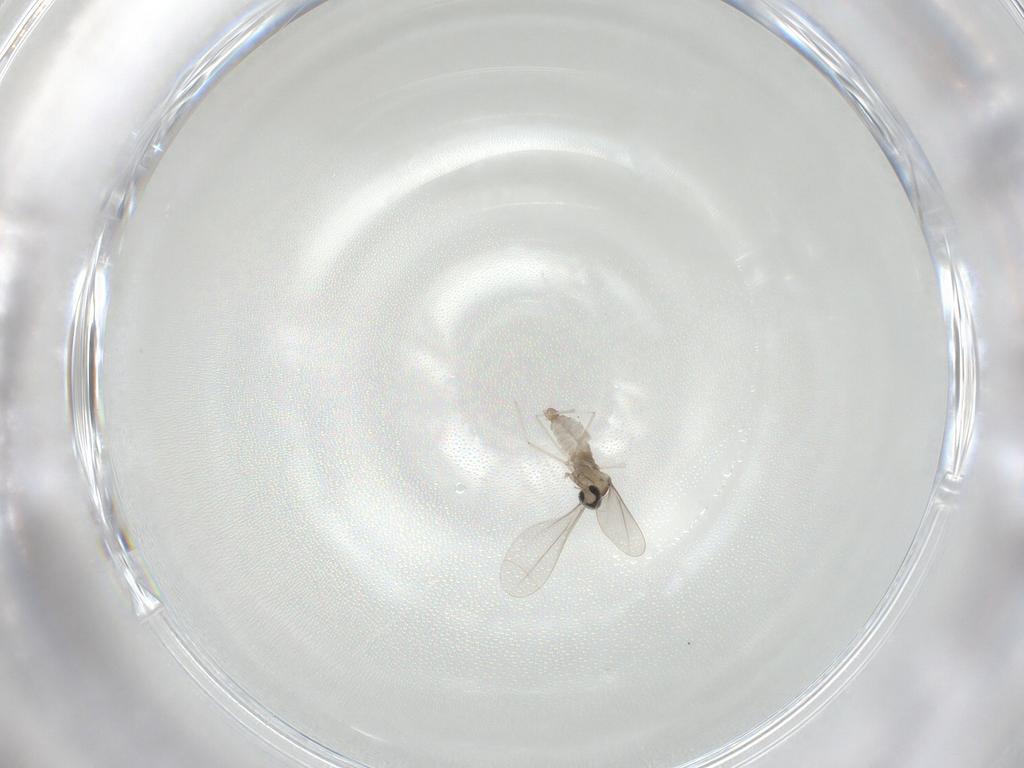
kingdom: Animalia
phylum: Arthropoda
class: Insecta
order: Diptera
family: Cecidomyiidae
